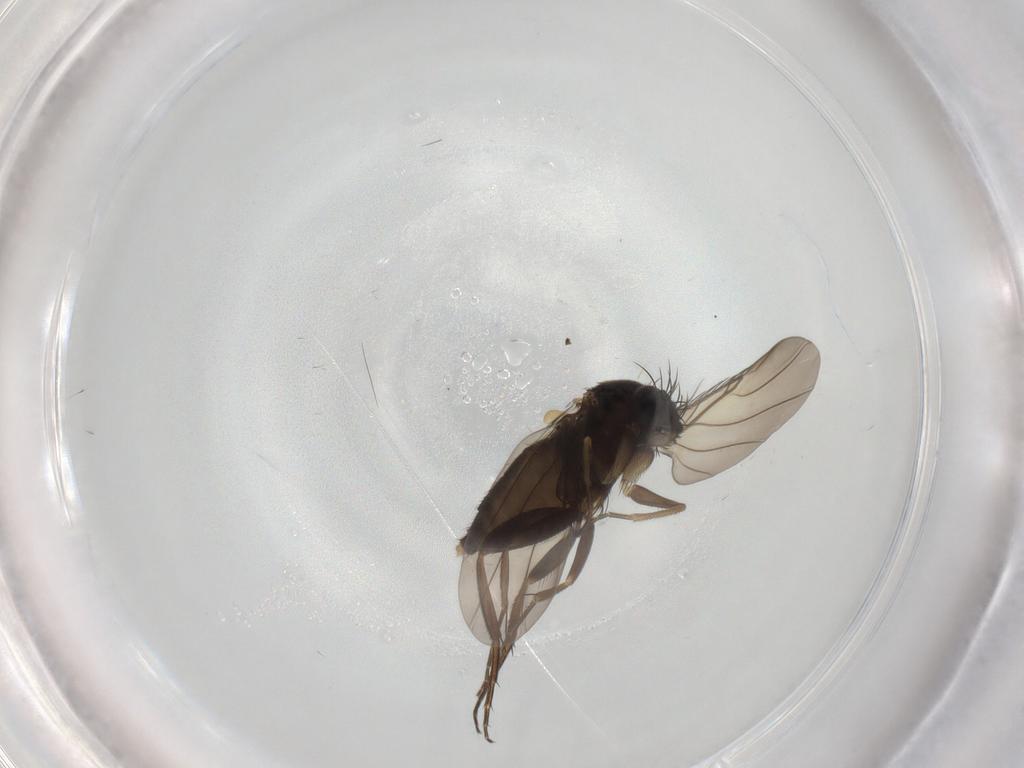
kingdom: Animalia
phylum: Arthropoda
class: Insecta
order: Diptera
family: Phoridae
